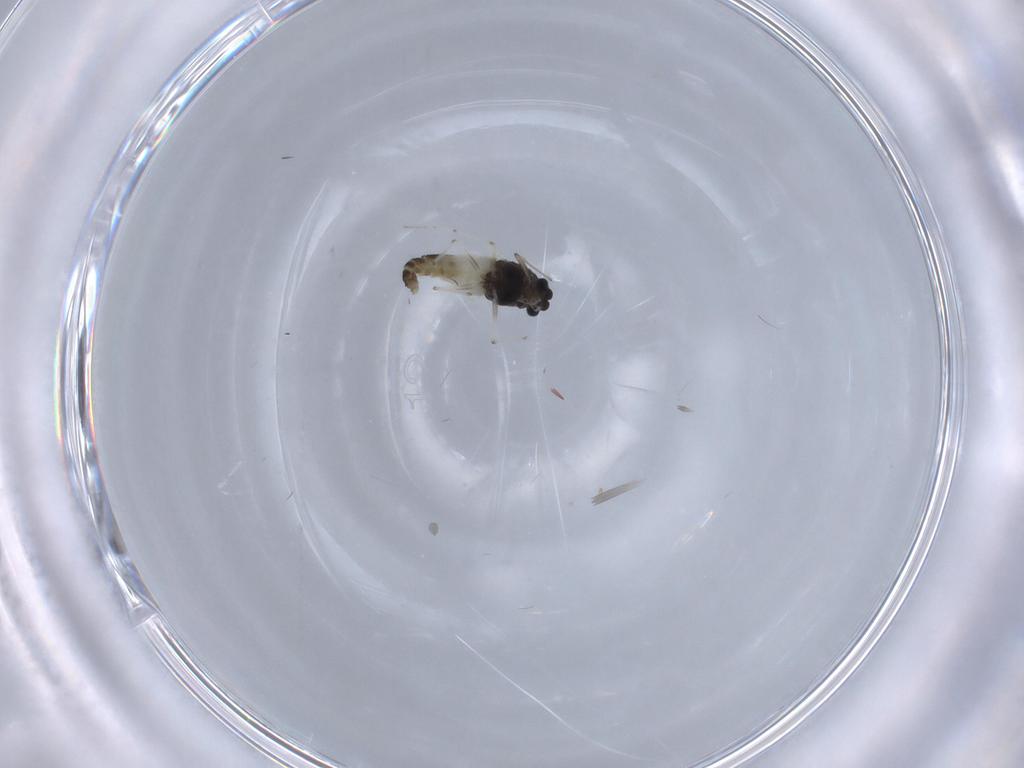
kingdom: Animalia
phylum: Arthropoda
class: Insecta
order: Diptera
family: Chironomidae
